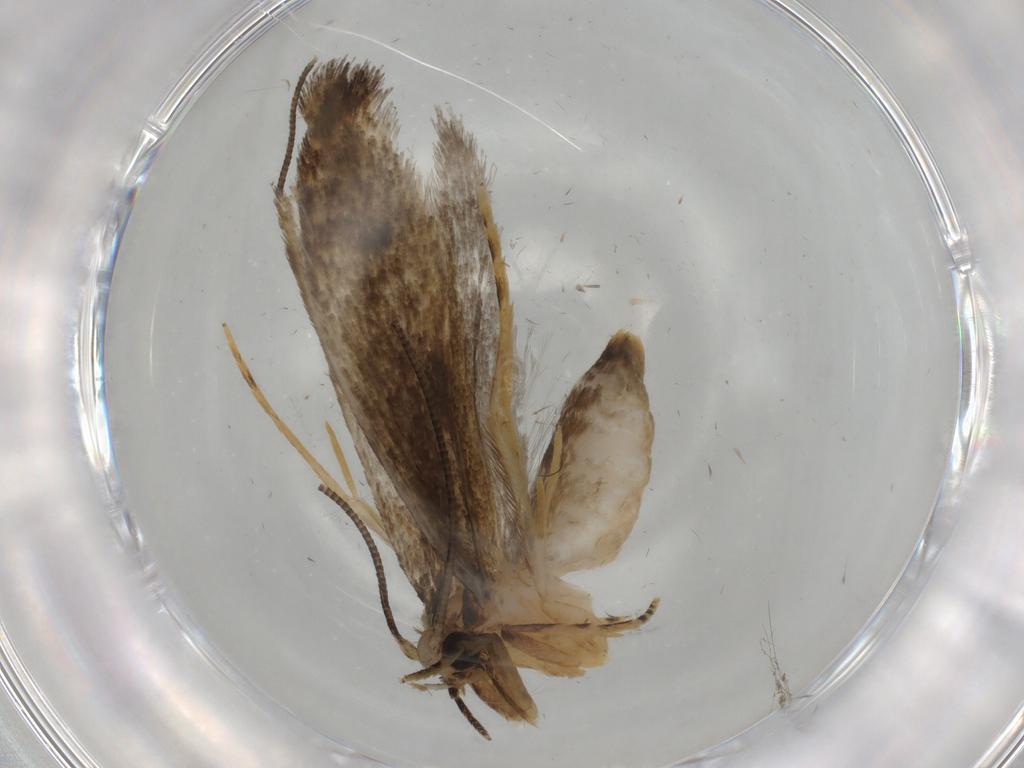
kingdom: Animalia
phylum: Arthropoda
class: Insecta
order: Lepidoptera
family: Tineidae
